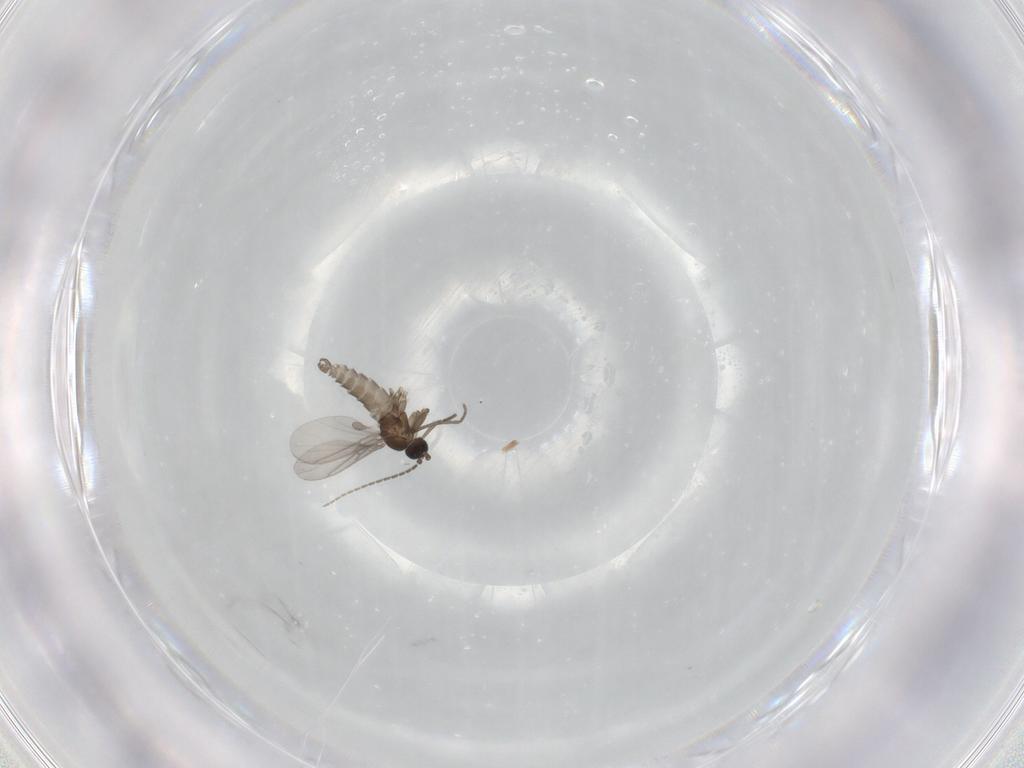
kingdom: Animalia
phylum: Arthropoda
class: Insecta
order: Diptera
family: Sciaridae
